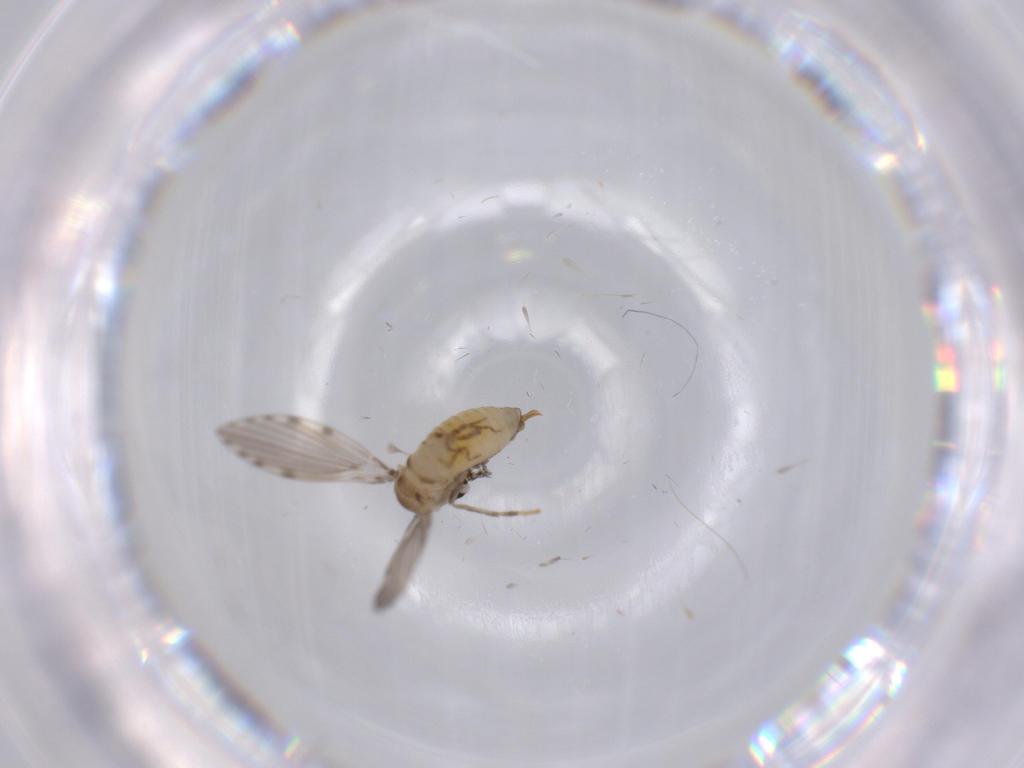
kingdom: Animalia
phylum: Arthropoda
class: Insecta
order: Diptera
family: Psychodidae
